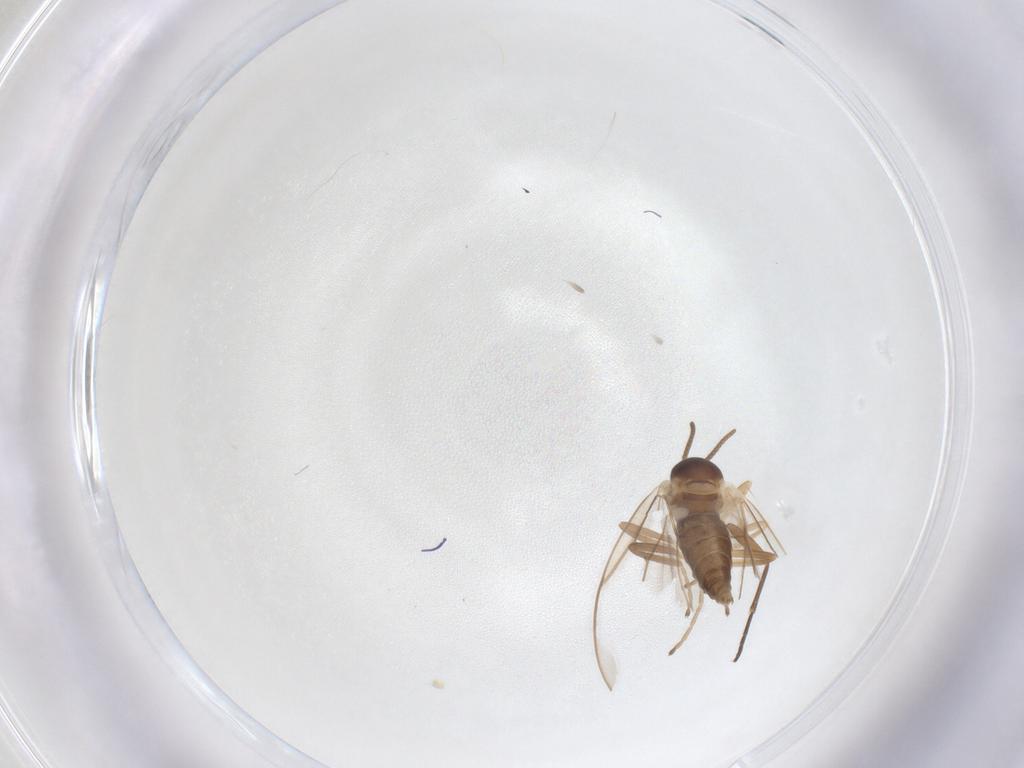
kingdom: Animalia
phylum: Arthropoda
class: Insecta
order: Diptera
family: Cecidomyiidae
